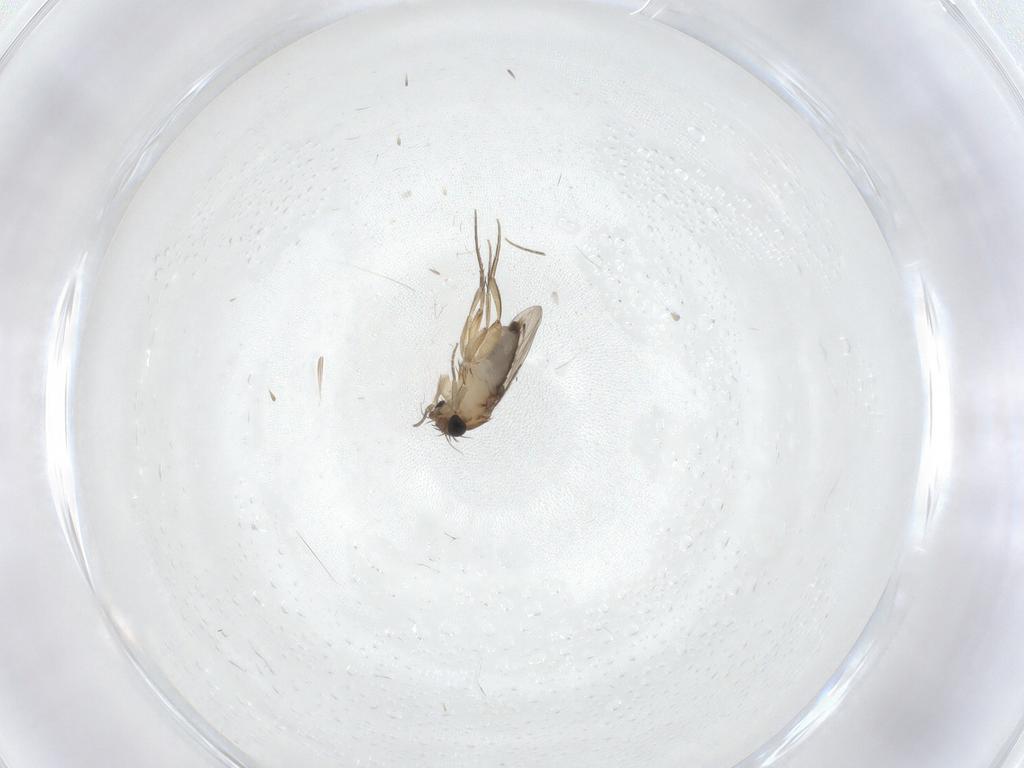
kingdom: Animalia
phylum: Arthropoda
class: Insecta
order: Diptera
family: Phoridae
